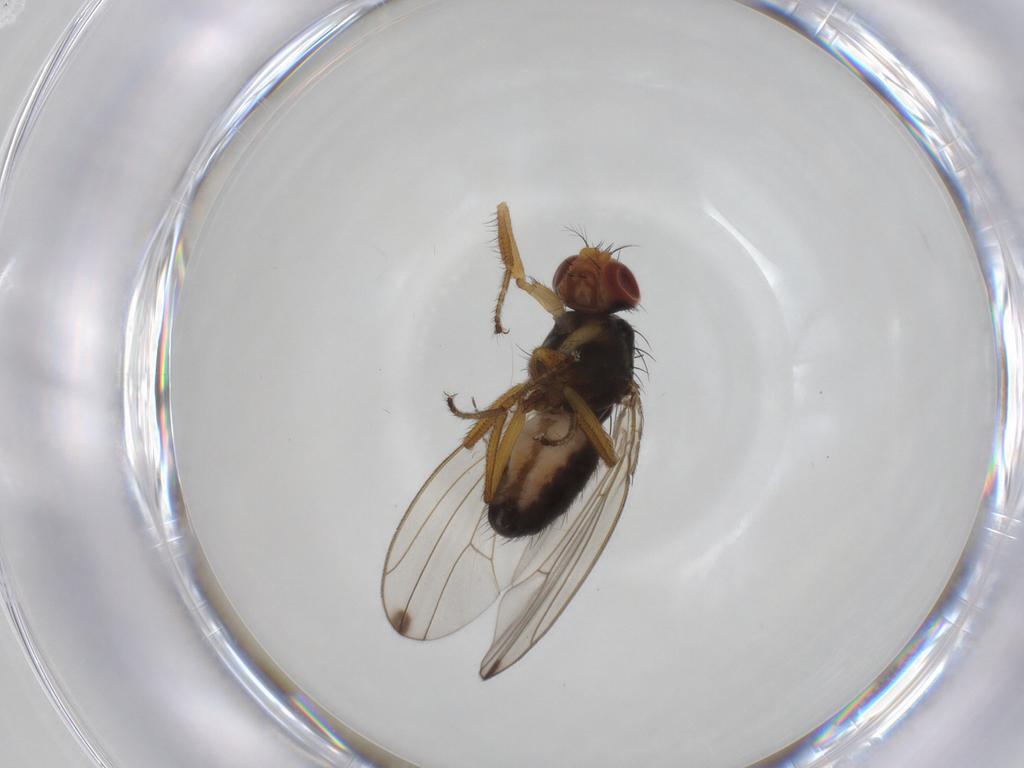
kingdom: Animalia
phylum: Arthropoda
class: Insecta
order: Diptera
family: Drosophilidae
